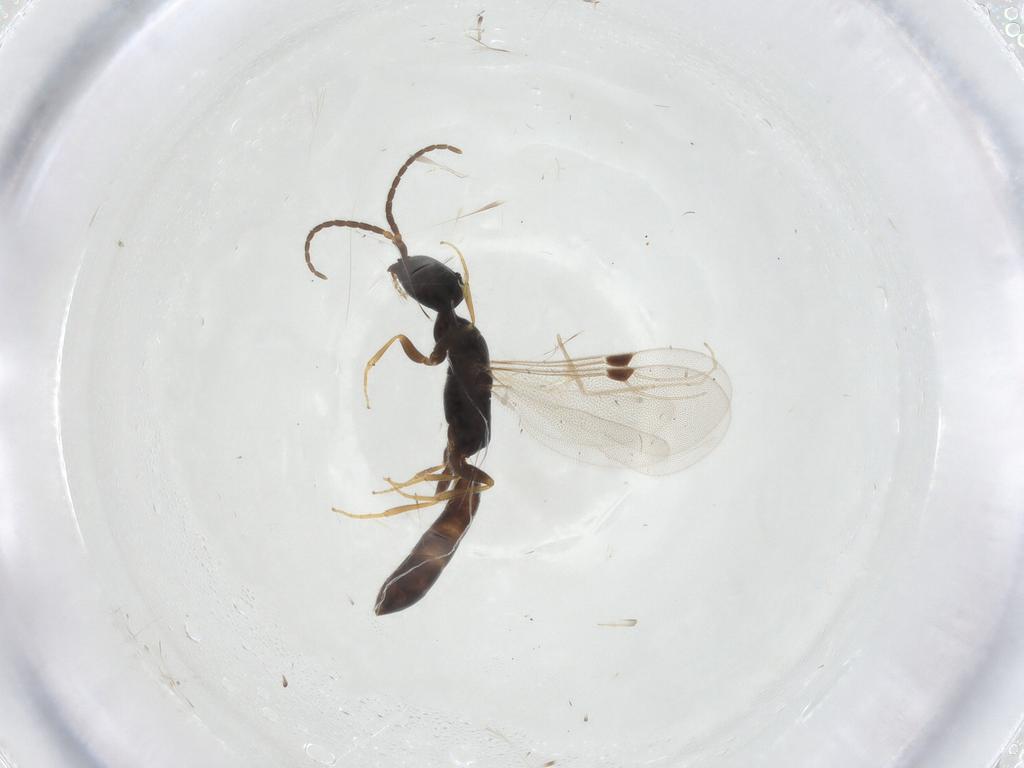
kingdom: Animalia
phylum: Arthropoda
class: Insecta
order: Hymenoptera
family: Bethylidae
